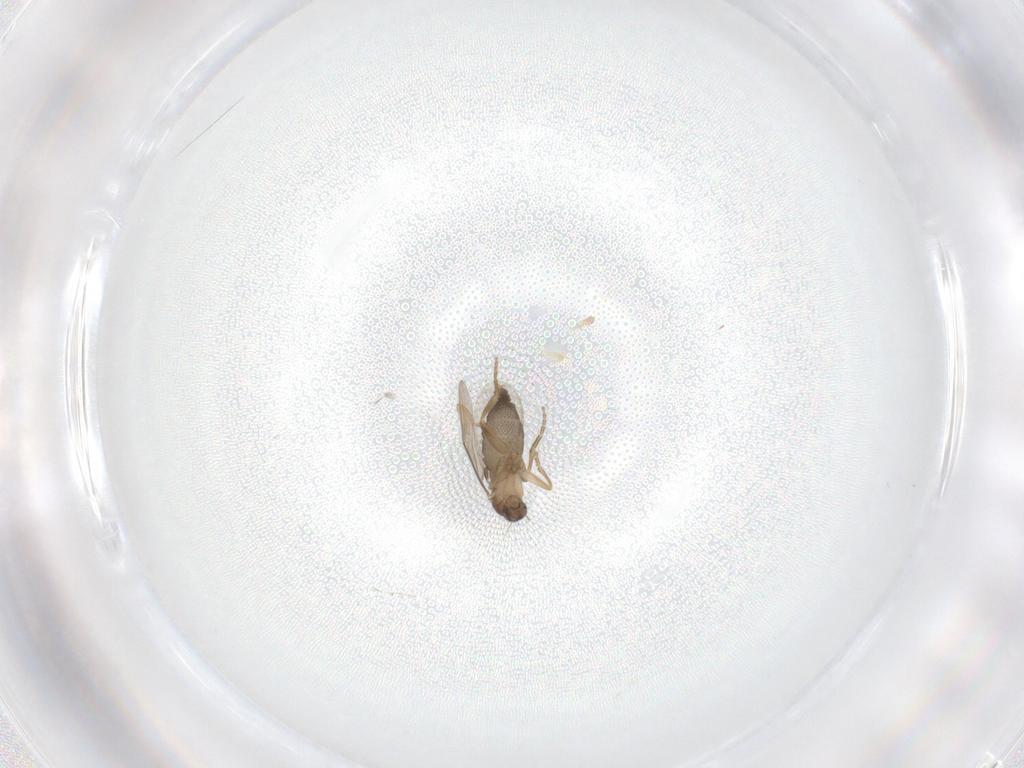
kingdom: Animalia
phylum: Arthropoda
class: Insecta
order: Diptera
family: Phoridae
